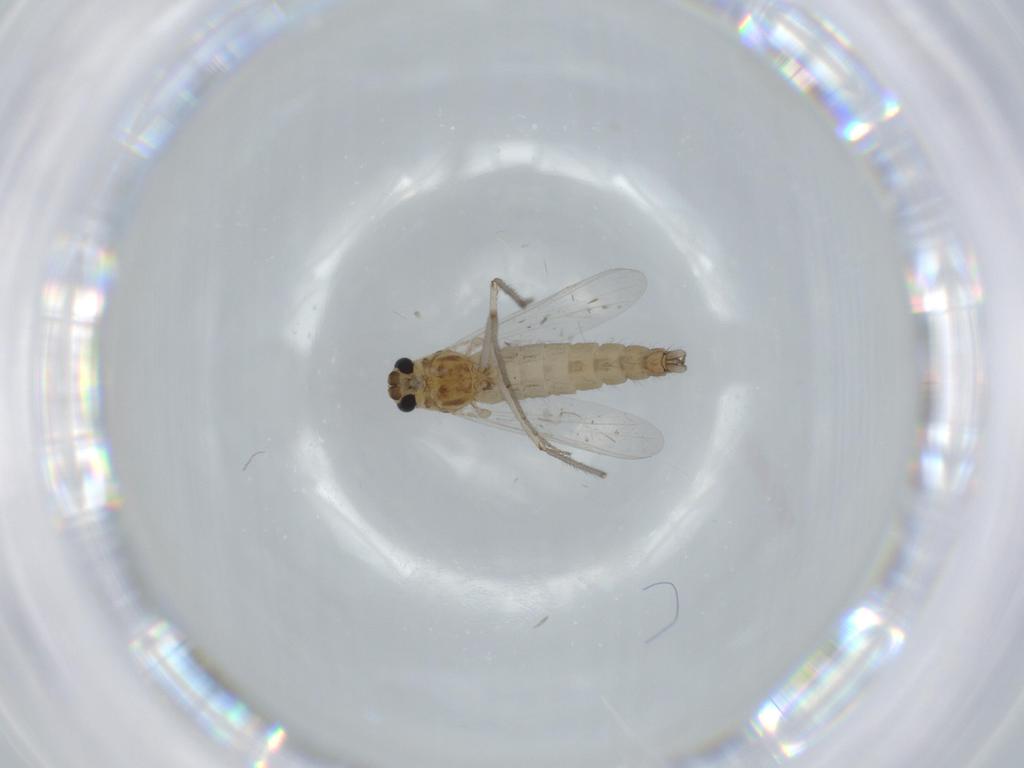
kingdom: Animalia
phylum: Arthropoda
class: Insecta
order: Diptera
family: Chironomidae
